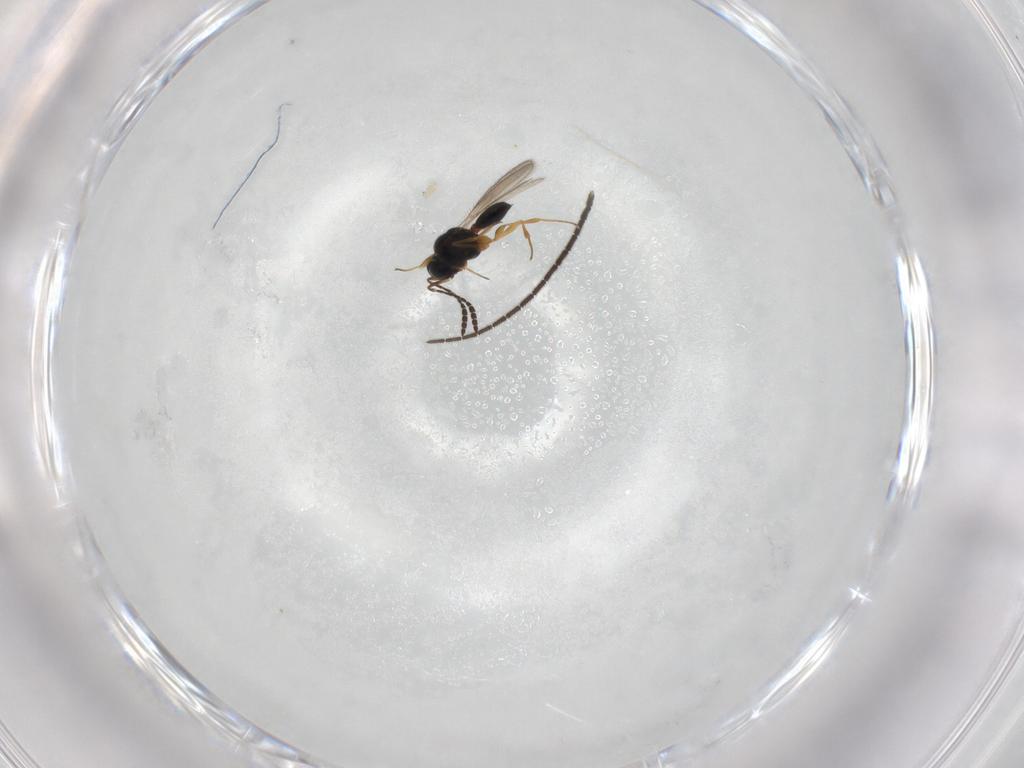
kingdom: Animalia
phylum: Arthropoda
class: Insecta
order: Hymenoptera
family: Scelionidae
